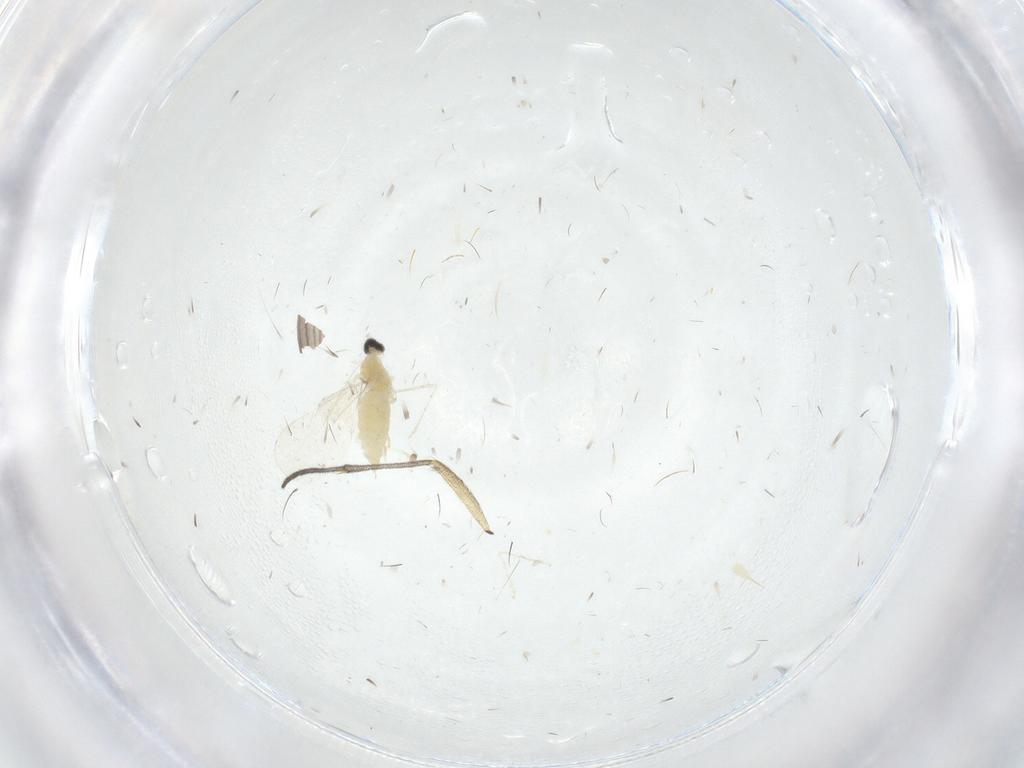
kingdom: Animalia
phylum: Arthropoda
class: Insecta
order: Diptera
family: Cecidomyiidae
